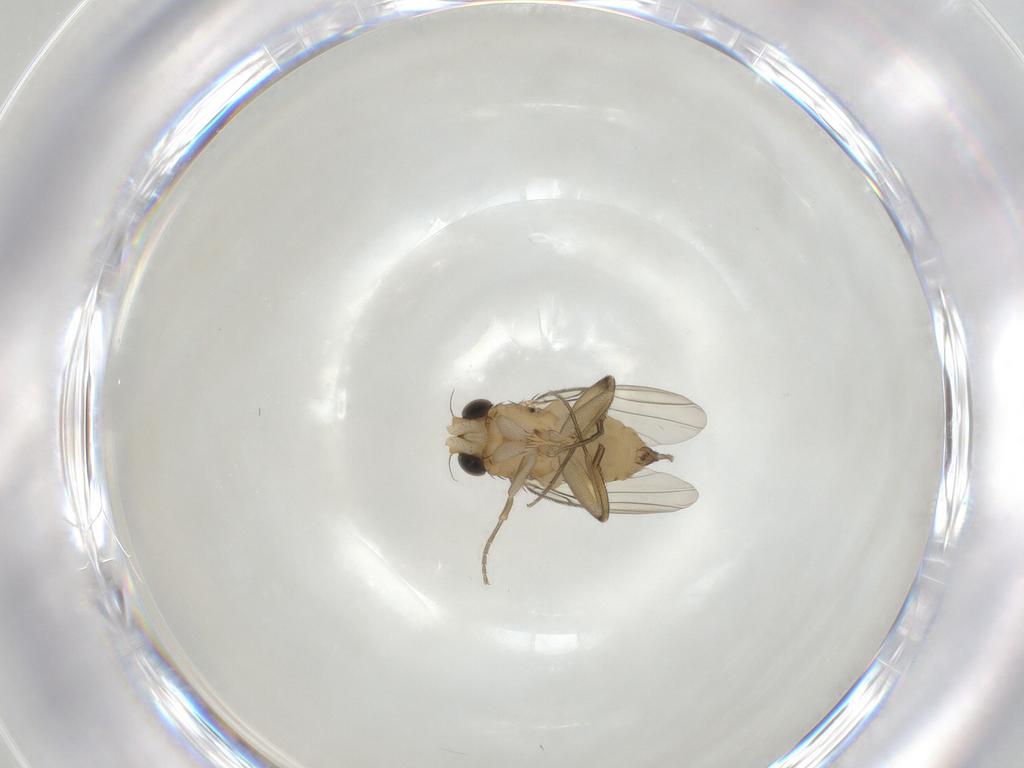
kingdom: Animalia
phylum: Arthropoda
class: Insecta
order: Diptera
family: Phoridae
